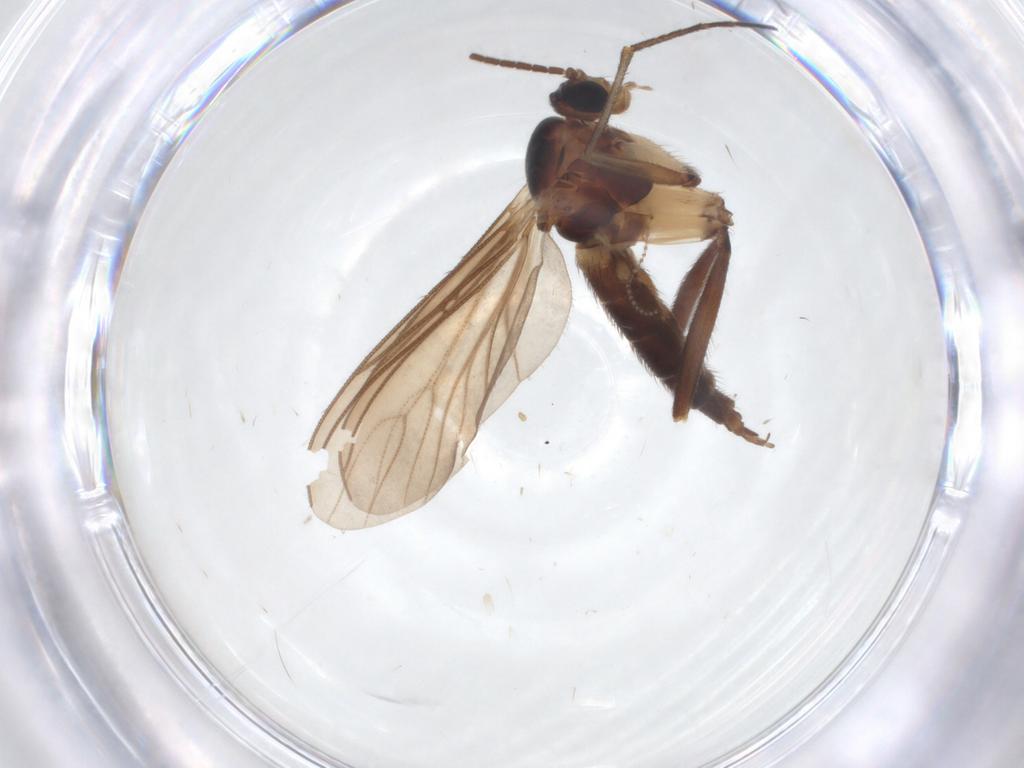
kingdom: Animalia
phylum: Arthropoda
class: Insecta
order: Diptera
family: Sciaridae
